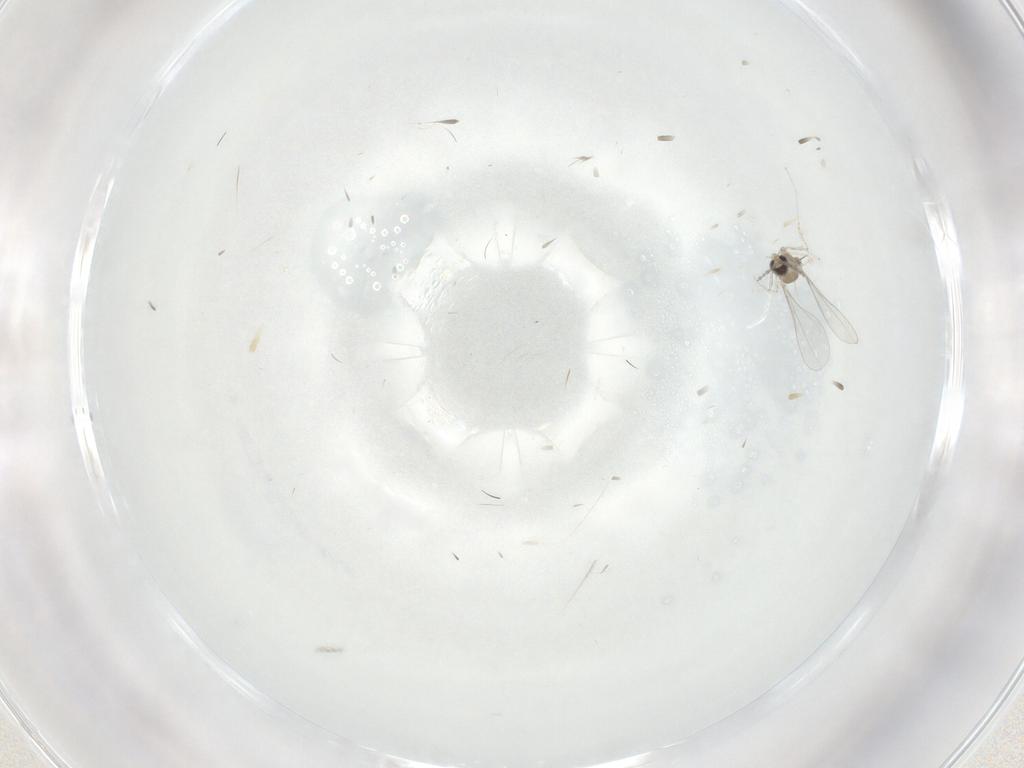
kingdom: Animalia
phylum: Arthropoda
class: Insecta
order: Diptera
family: Cecidomyiidae
